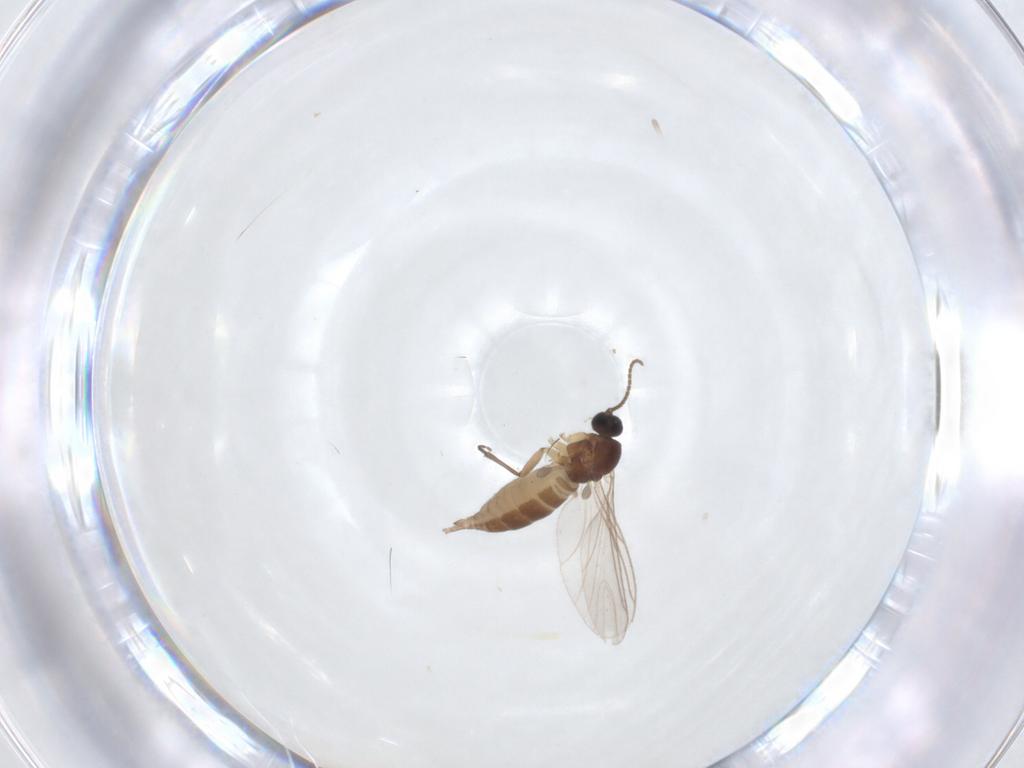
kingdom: Animalia
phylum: Arthropoda
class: Insecta
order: Diptera
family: Sciaridae
